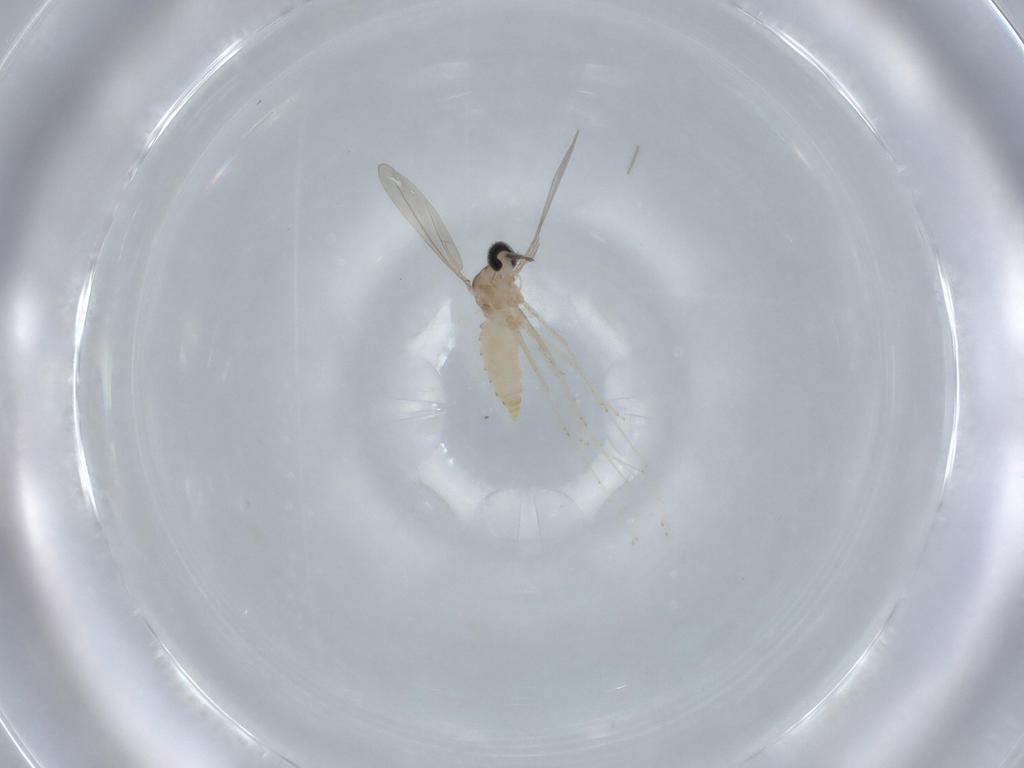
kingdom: Animalia
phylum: Arthropoda
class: Insecta
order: Diptera
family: Cecidomyiidae
